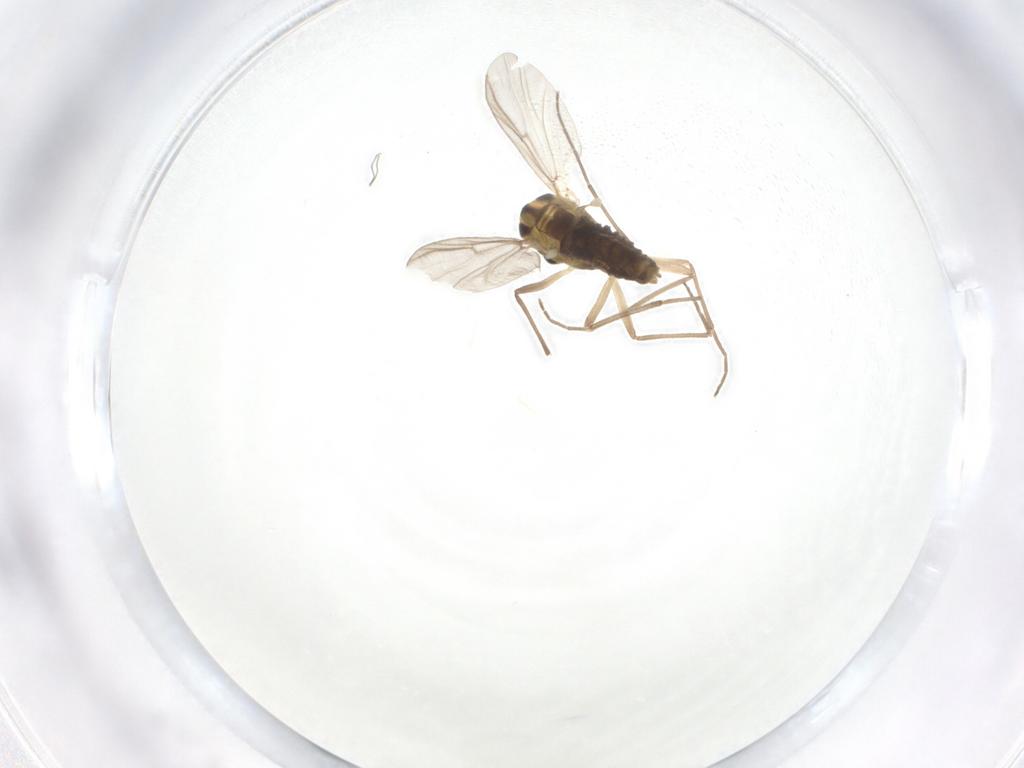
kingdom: Animalia
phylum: Arthropoda
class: Insecta
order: Diptera
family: Chironomidae
